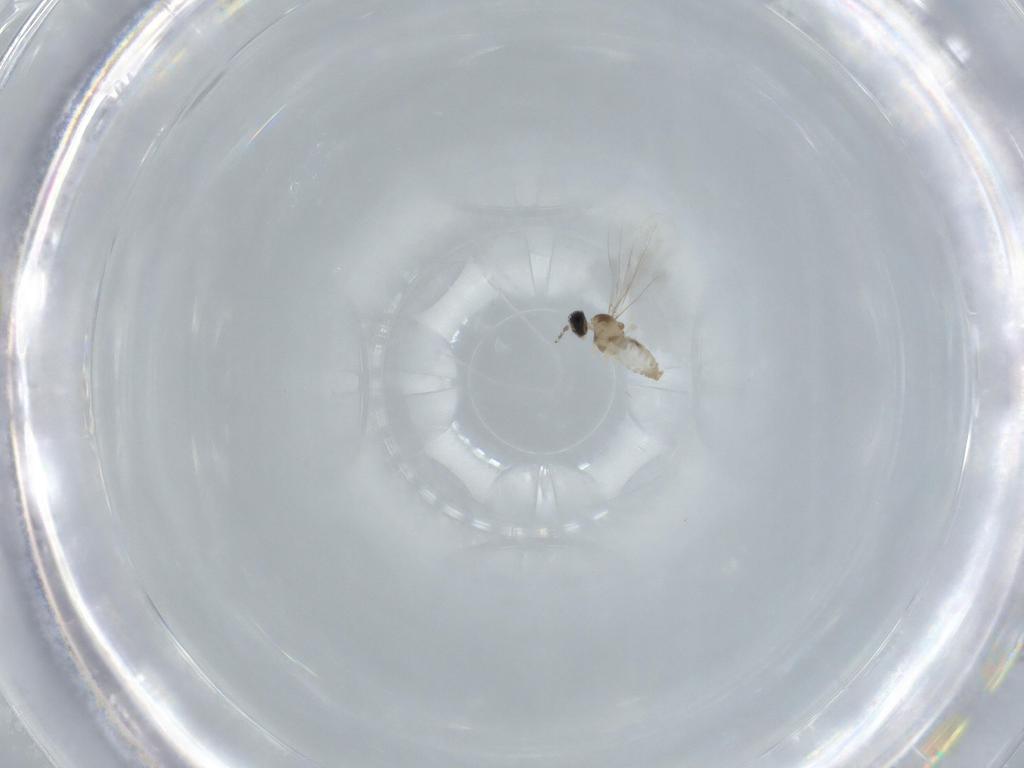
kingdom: Animalia
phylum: Arthropoda
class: Insecta
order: Diptera
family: Cecidomyiidae
